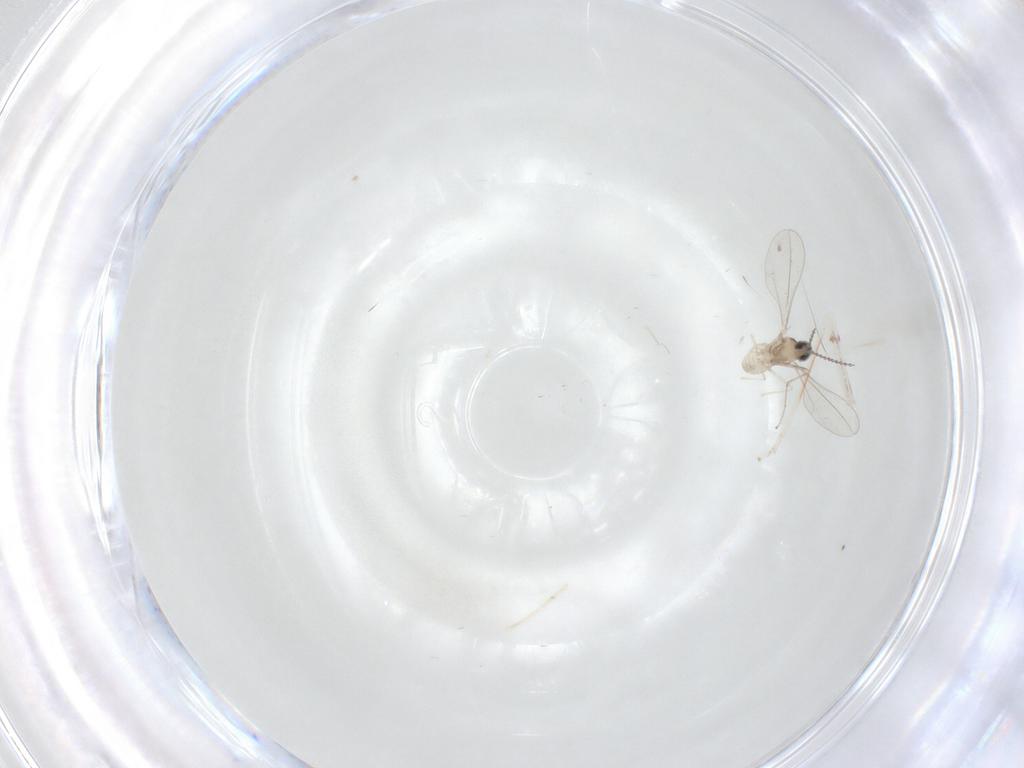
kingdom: Animalia
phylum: Arthropoda
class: Insecta
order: Diptera
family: Cecidomyiidae
